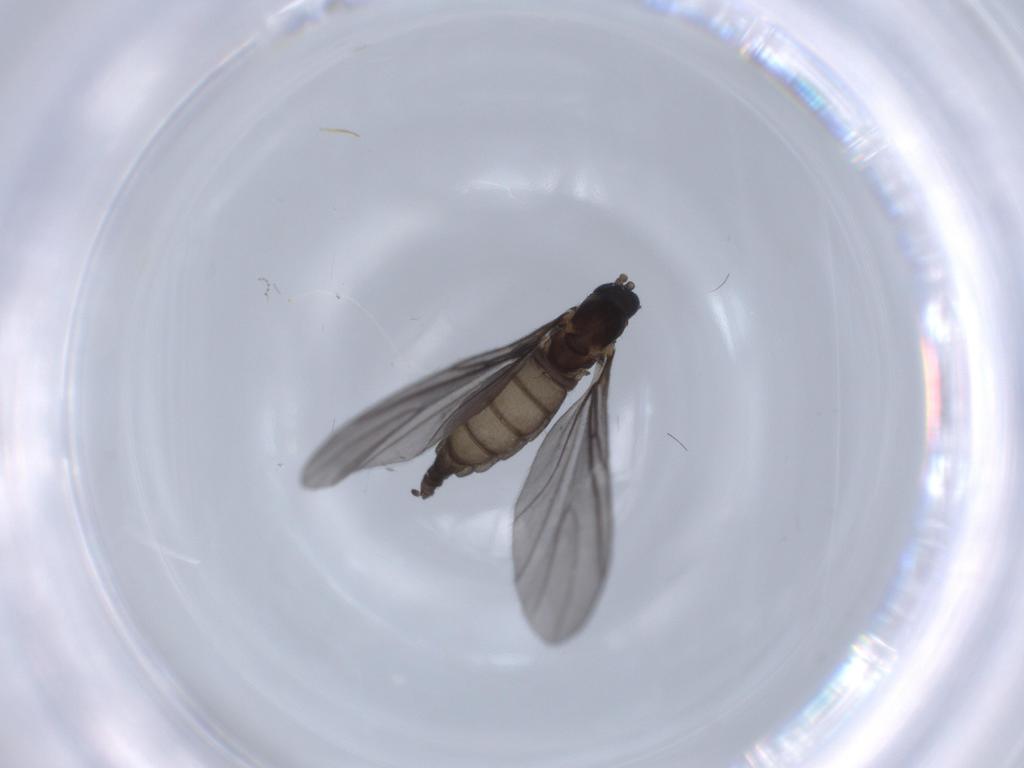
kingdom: Animalia
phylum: Arthropoda
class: Insecta
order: Diptera
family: Sciaridae
